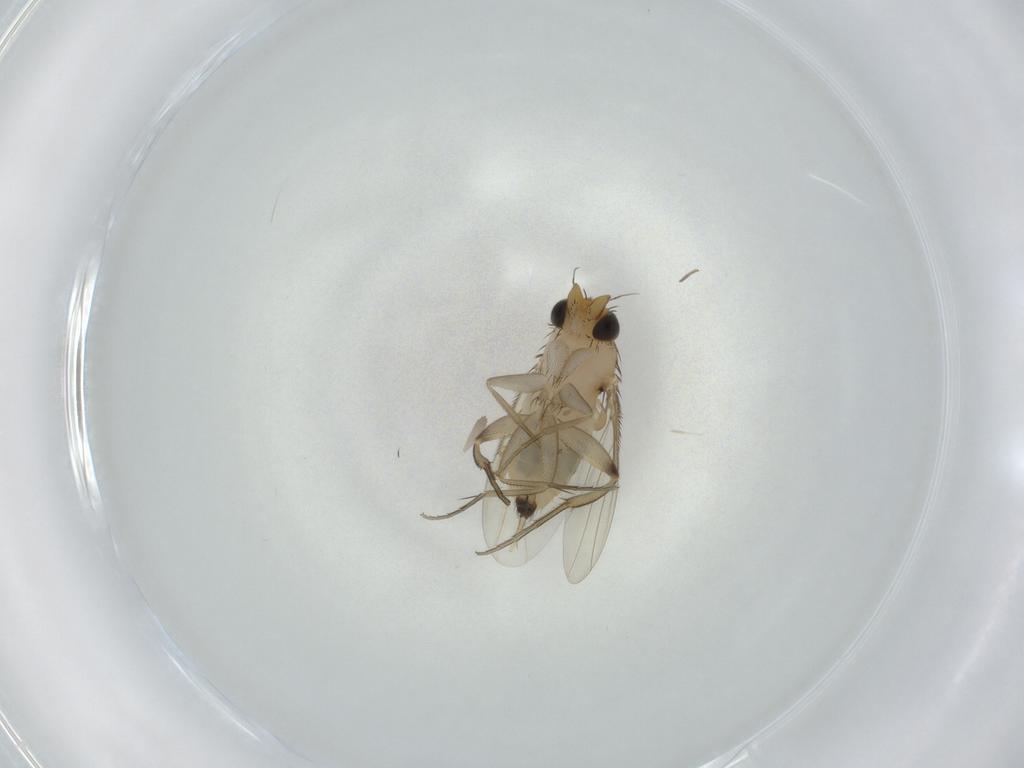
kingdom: Animalia
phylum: Arthropoda
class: Insecta
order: Diptera
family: Phoridae
